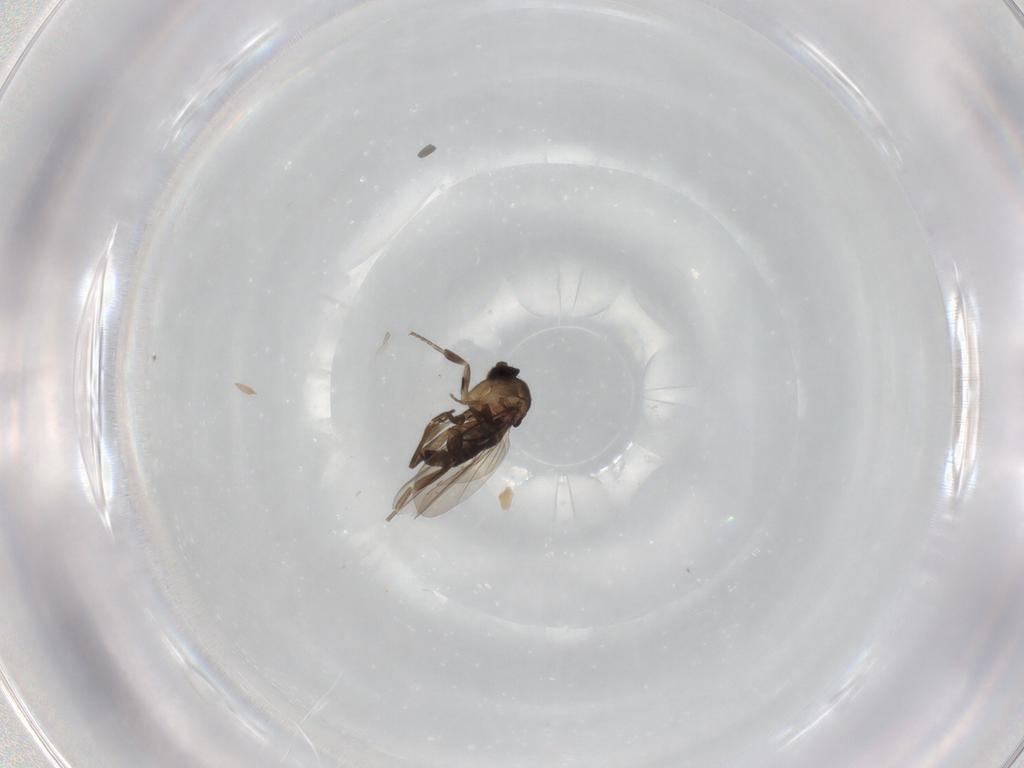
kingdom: Animalia
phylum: Arthropoda
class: Insecta
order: Diptera
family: Phoridae
